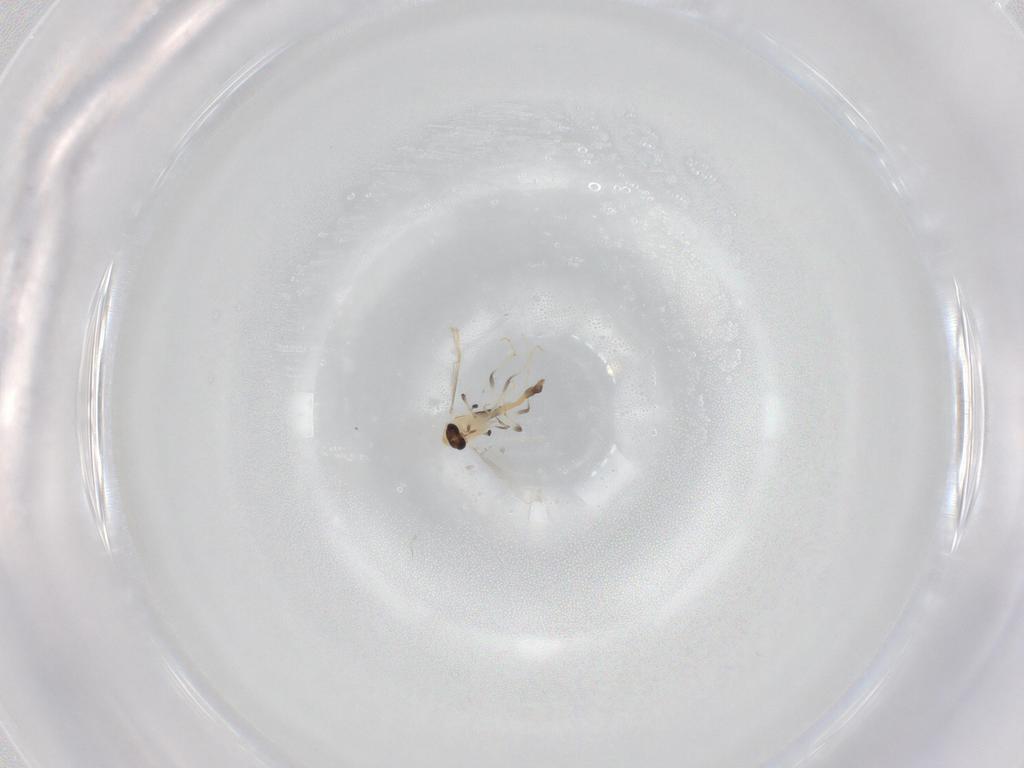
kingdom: Animalia
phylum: Arthropoda
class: Insecta
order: Diptera
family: Chironomidae
